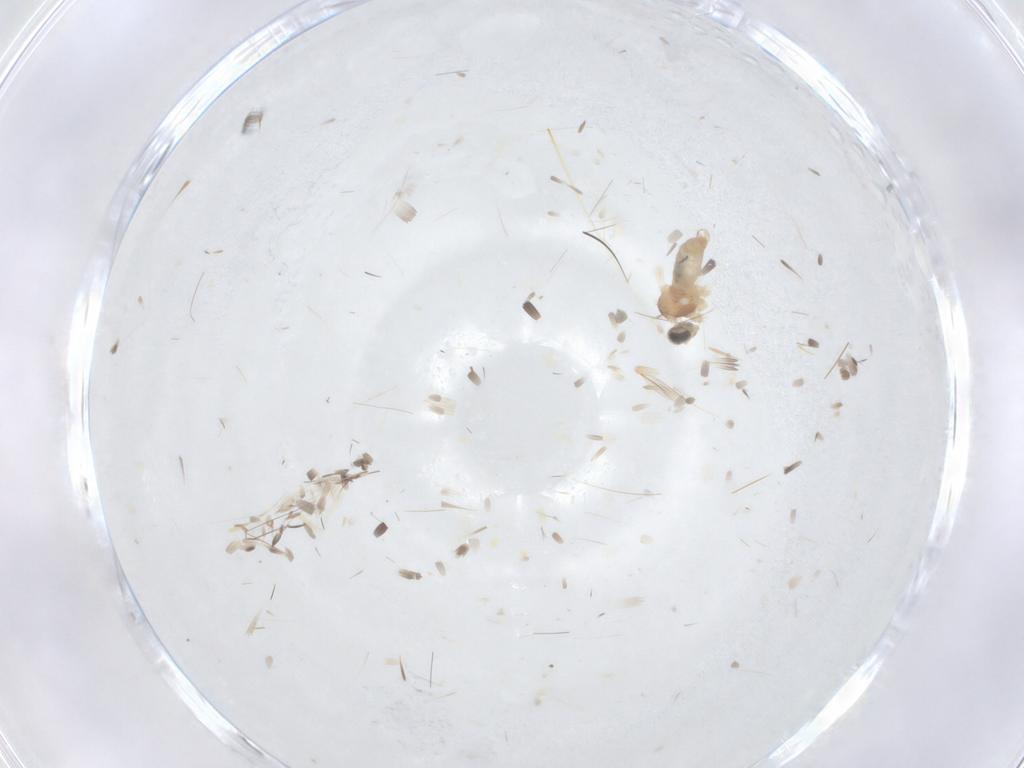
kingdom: Animalia
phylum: Arthropoda
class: Insecta
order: Diptera
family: Cecidomyiidae
